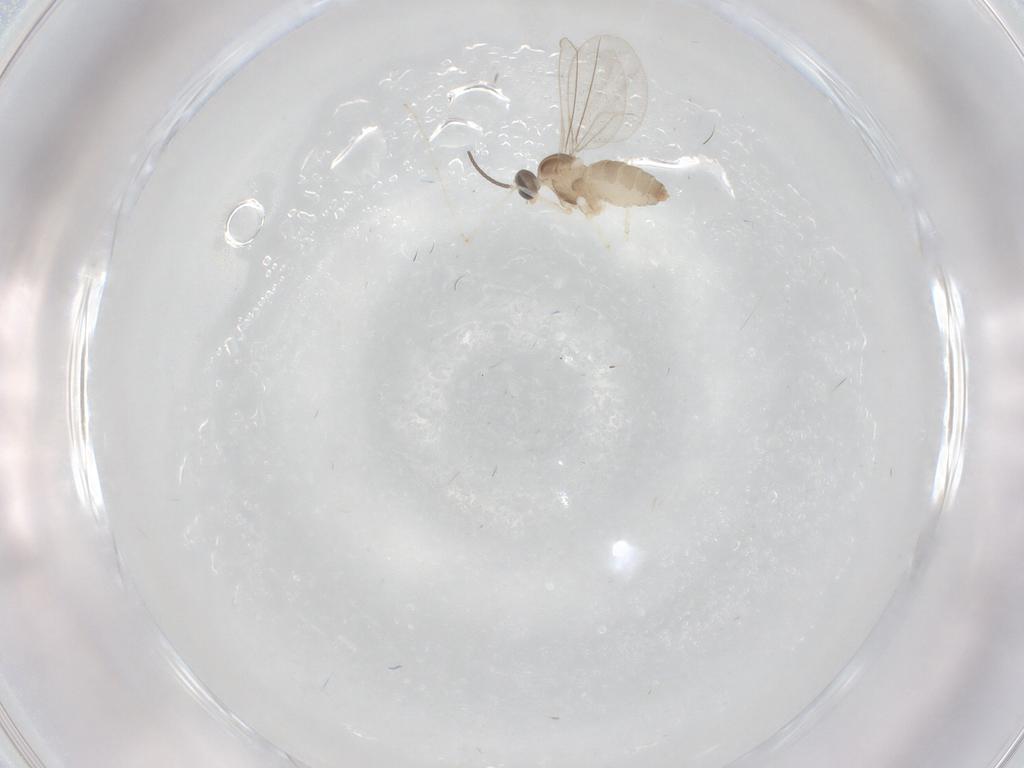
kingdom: Animalia
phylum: Arthropoda
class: Insecta
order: Diptera
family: Cecidomyiidae
